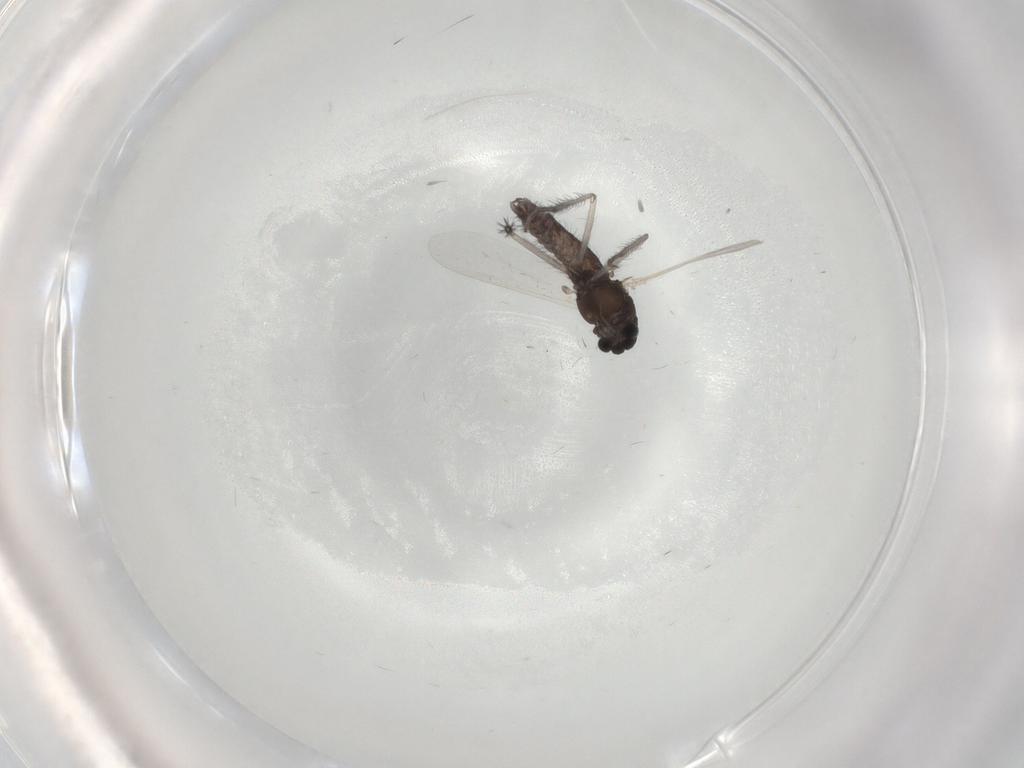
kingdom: Animalia
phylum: Arthropoda
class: Insecta
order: Diptera
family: Chironomidae
